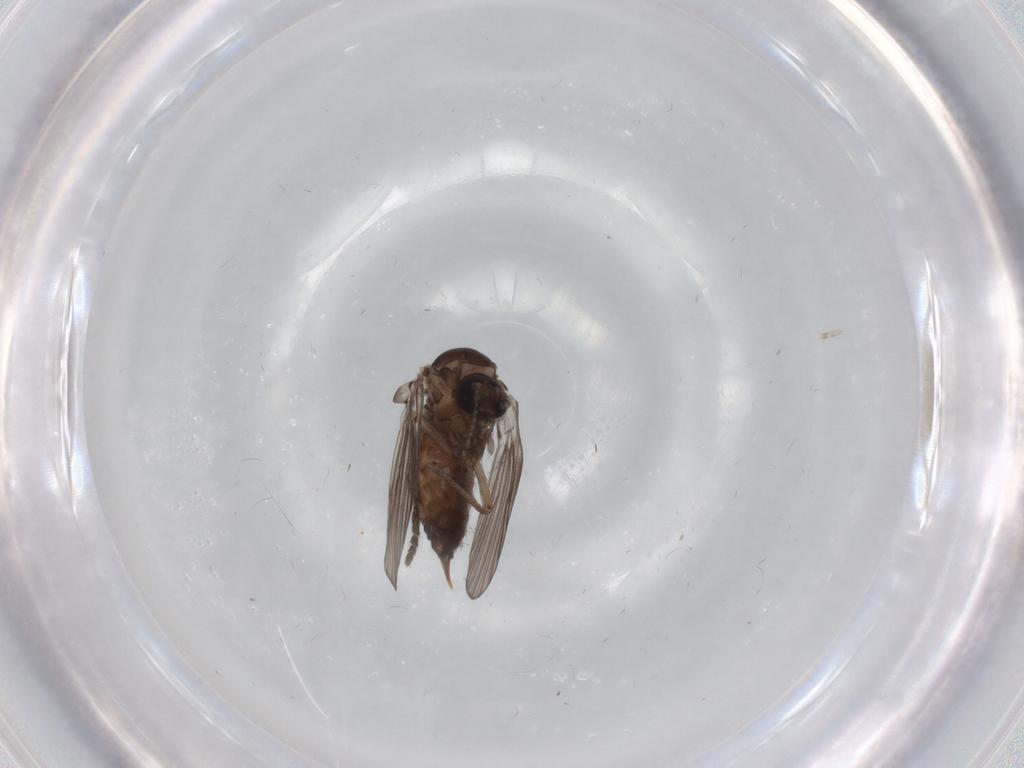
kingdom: Animalia
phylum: Arthropoda
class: Insecta
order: Diptera
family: Psychodidae
